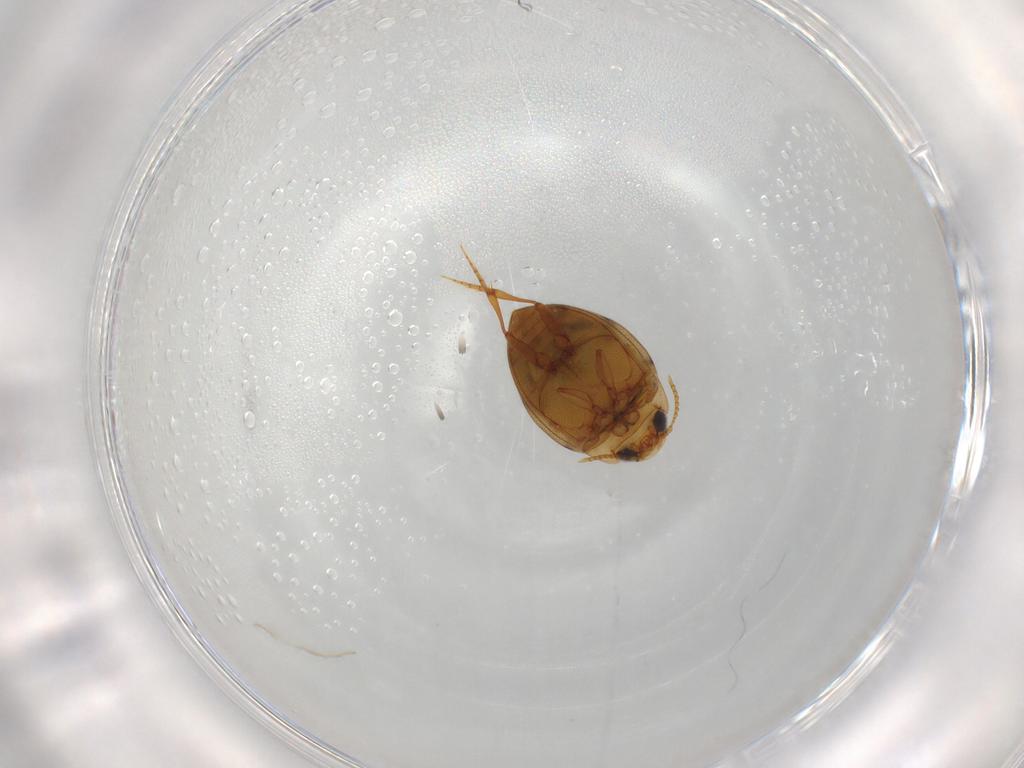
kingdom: Animalia
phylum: Arthropoda
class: Insecta
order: Coleoptera
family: Dytiscidae
